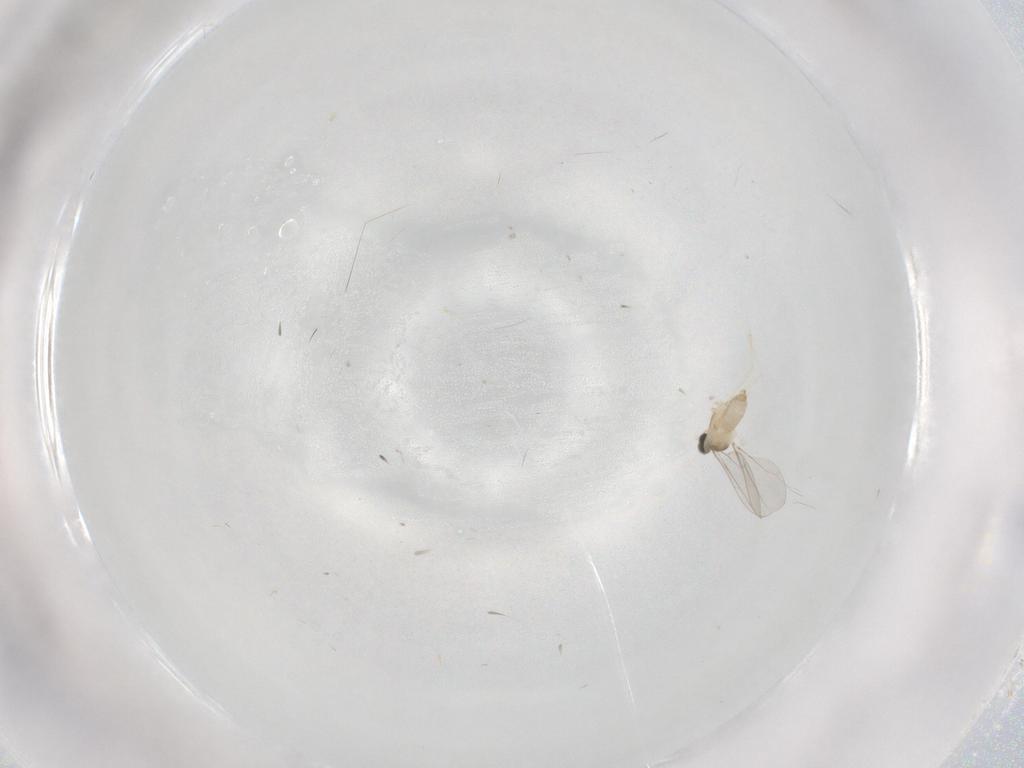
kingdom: Animalia
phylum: Arthropoda
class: Insecta
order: Diptera
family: Cecidomyiidae
